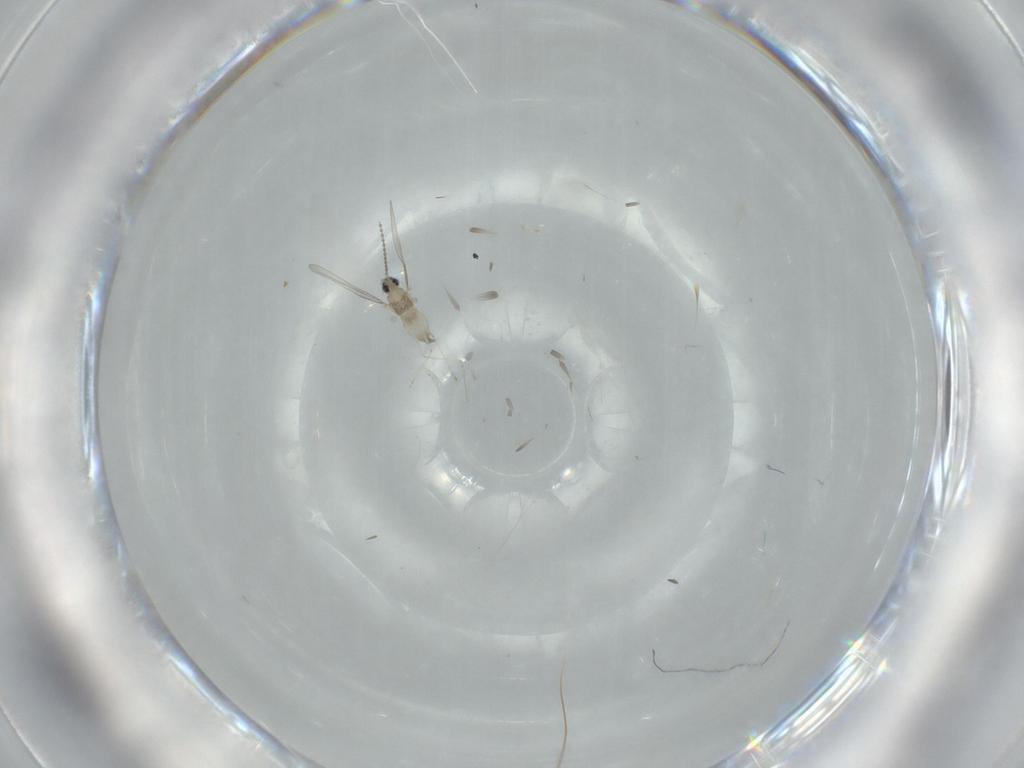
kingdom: Animalia
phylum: Arthropoda
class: Insecta
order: Diptera
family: Cecidomyiidae
